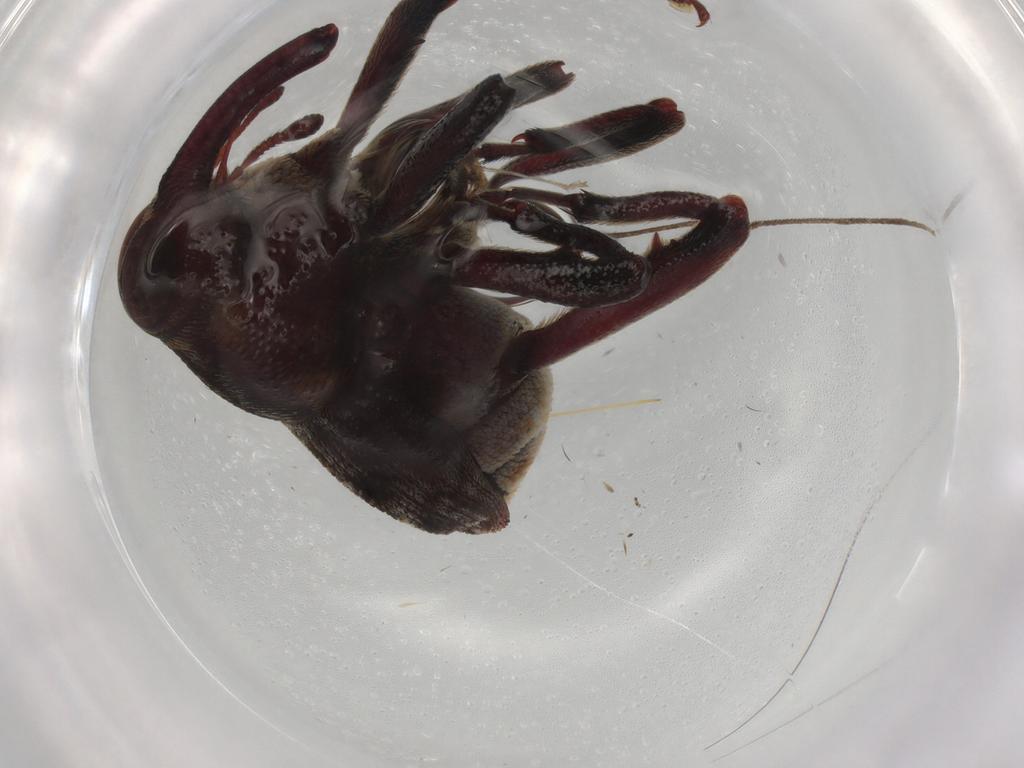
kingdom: Animalia
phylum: Arthropoda
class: Insecta
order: Coleoptera
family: Curculionidae
